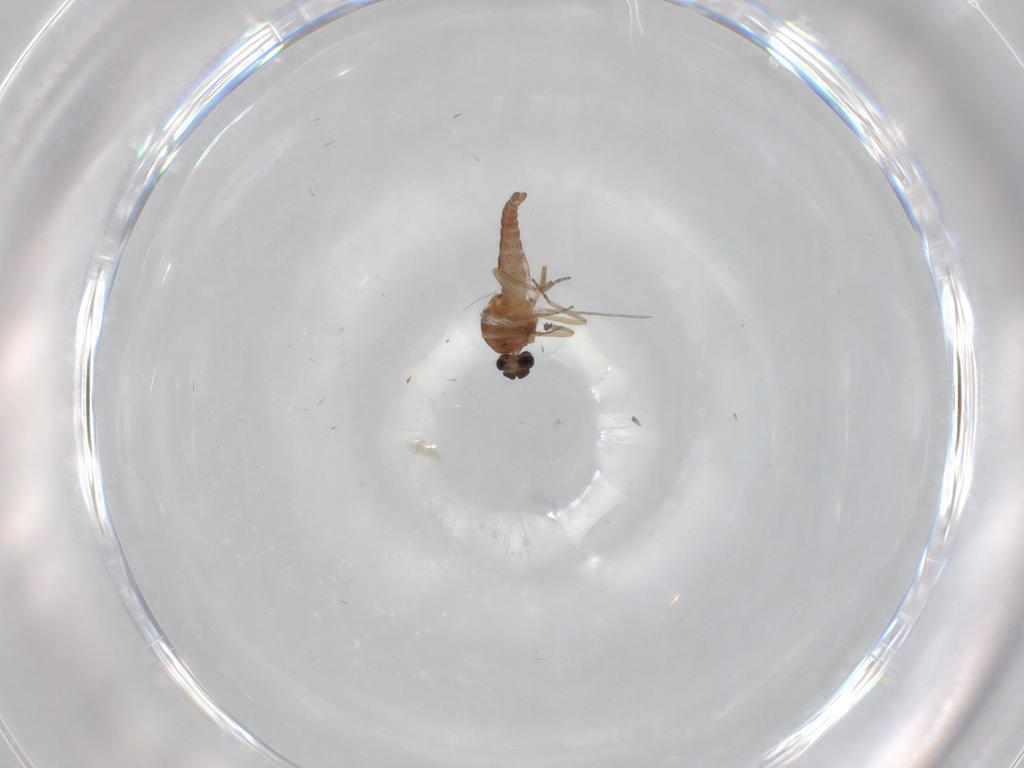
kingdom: Animalia
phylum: Arthropoda
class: Insecta
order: Diptera
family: Ceratopogonidae
